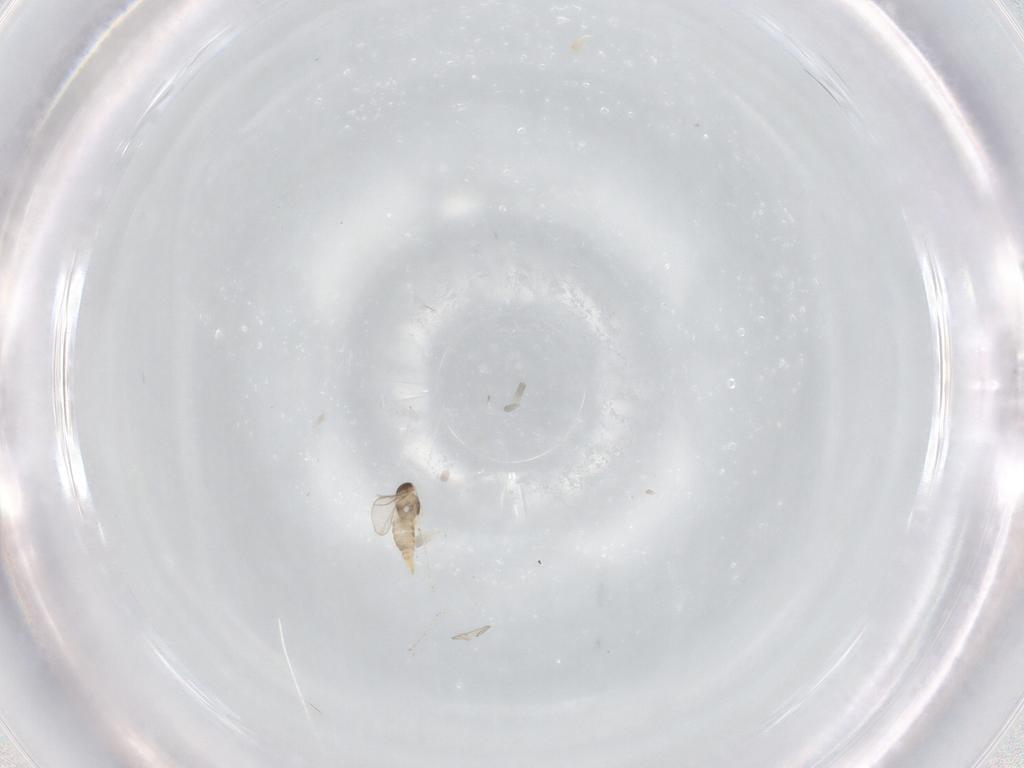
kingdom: Animalia
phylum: Arthropoda
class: Insecta
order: Diptera
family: Cecidomyiidae
